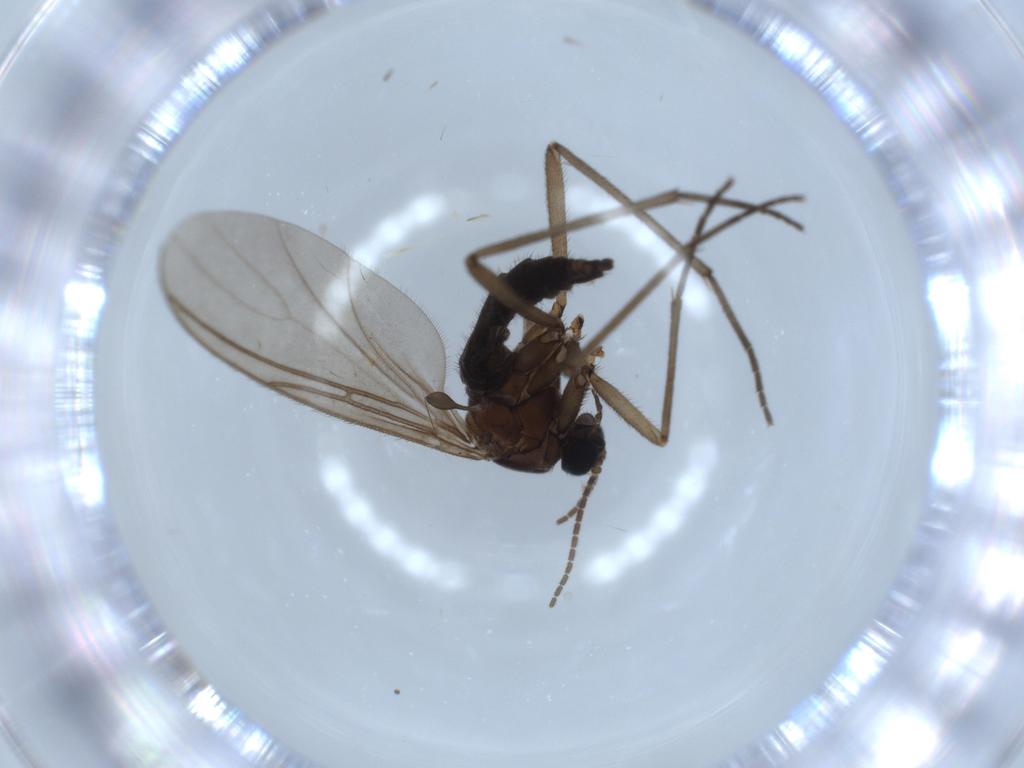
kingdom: Animalia
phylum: Arthropoda
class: Insecta
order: Diptera
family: Sciaridae
